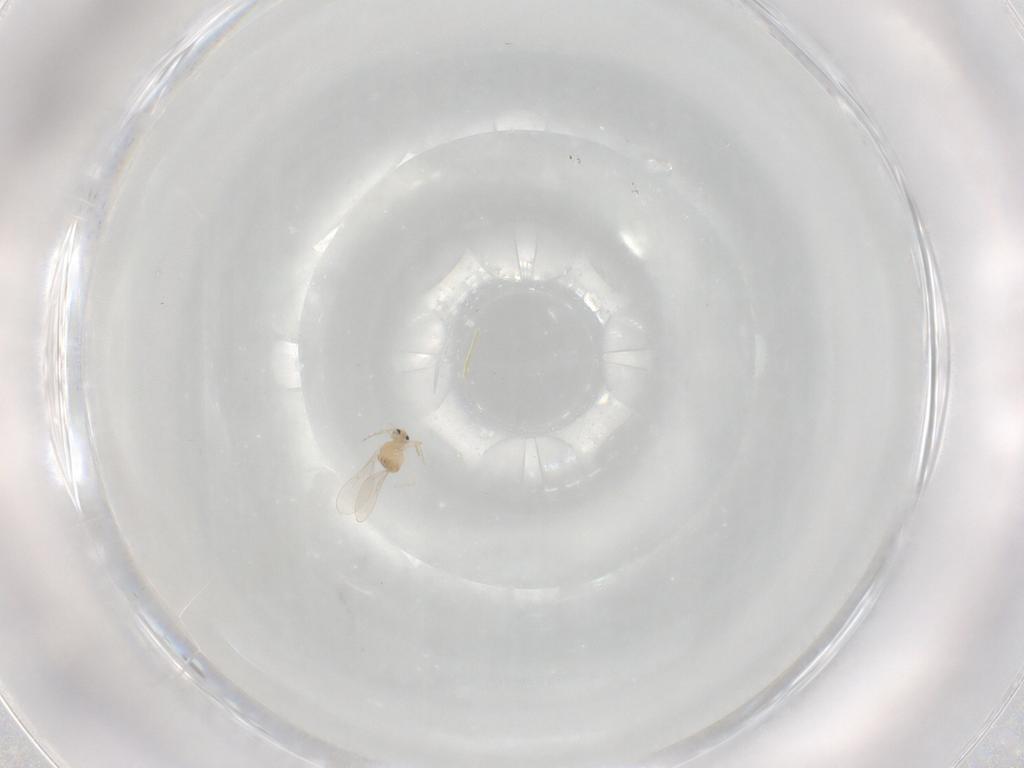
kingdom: Animalia
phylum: Arthropoda
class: Insecta
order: Diptera
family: Cecidomyiidae
